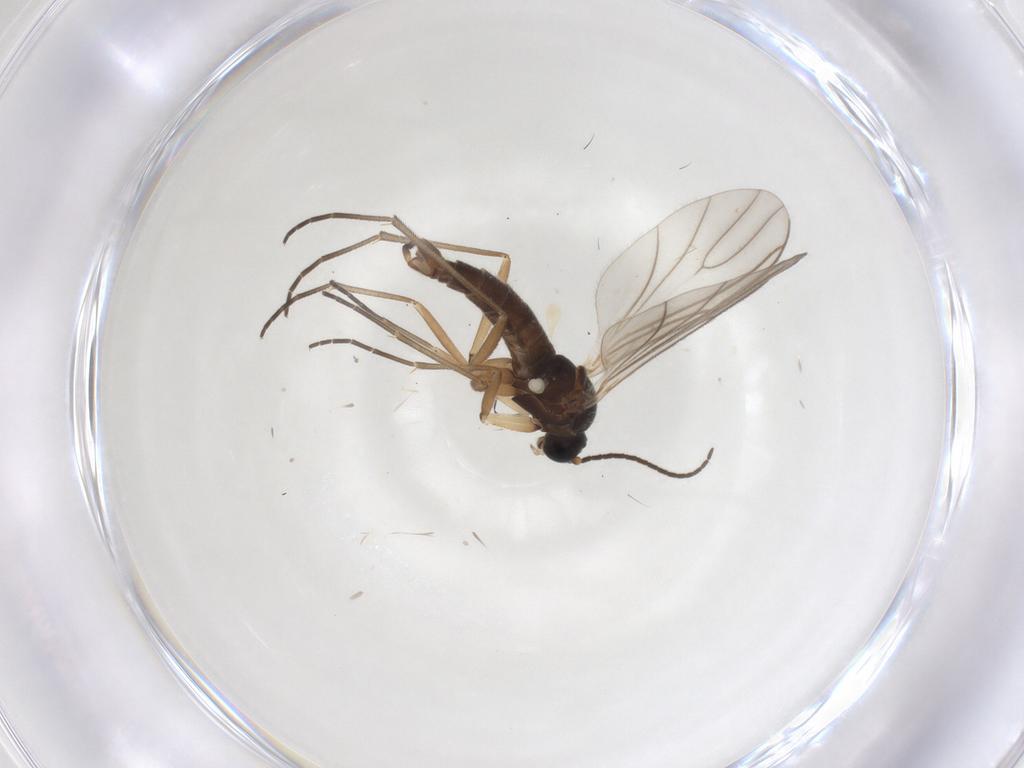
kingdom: Animalia
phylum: Arthropoda
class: Insecta
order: Diptera
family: Sciaridae
